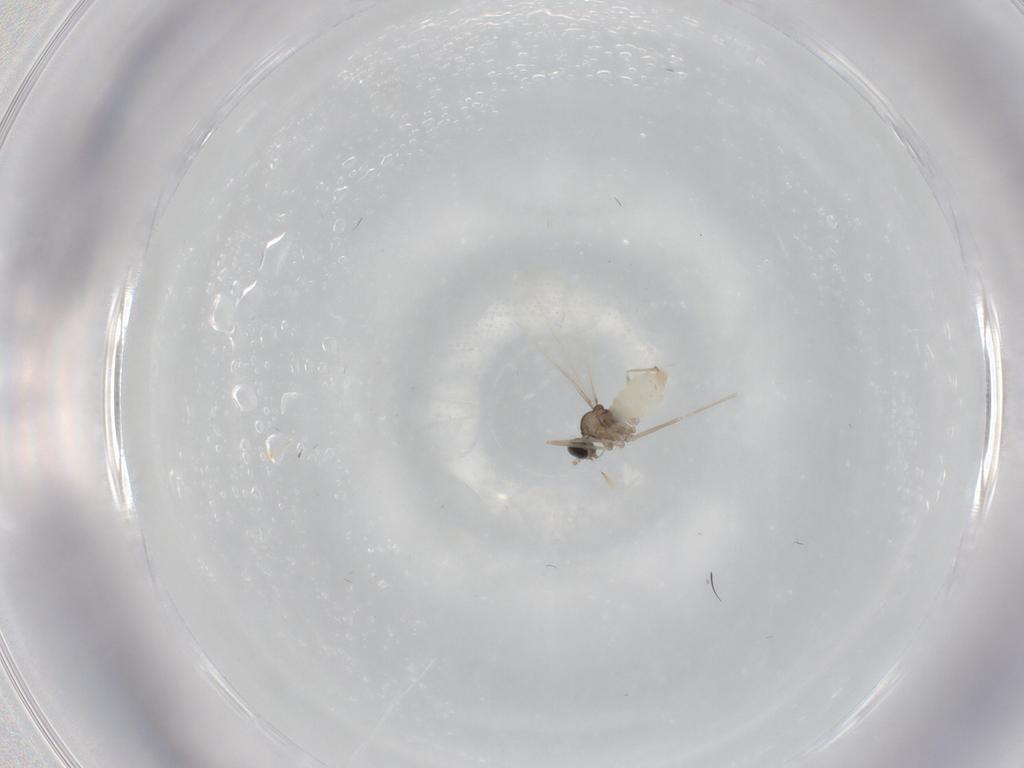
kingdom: Animalia
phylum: Arthropoda
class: Insecta
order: Diptera
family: Cecidomyiidae
